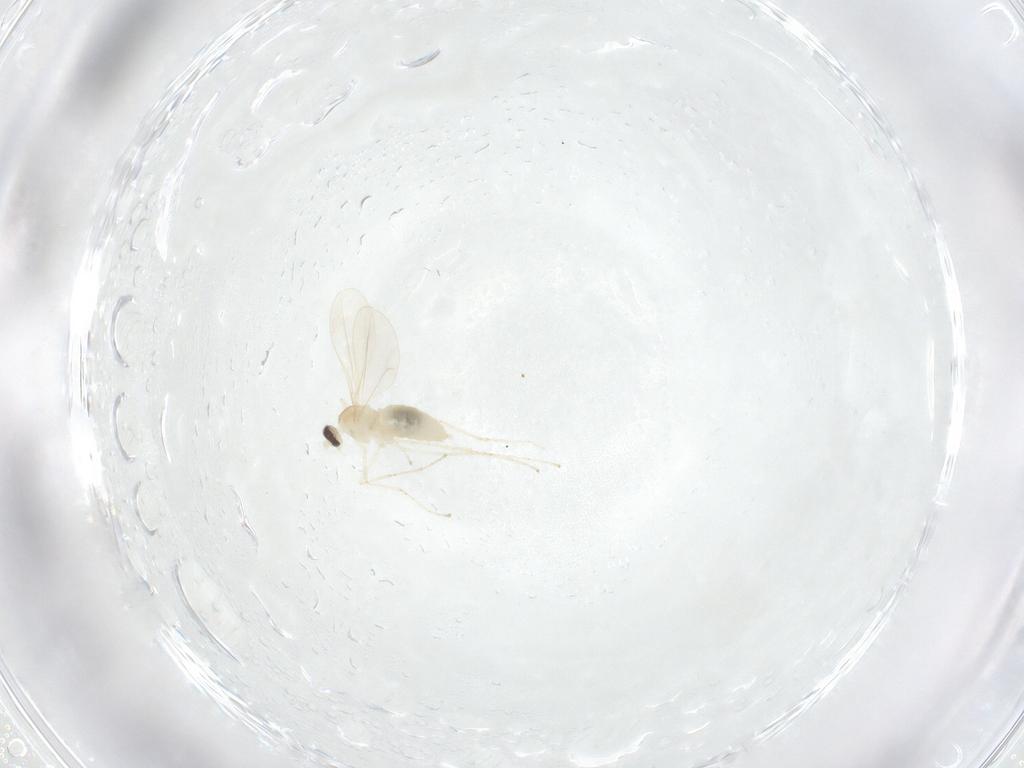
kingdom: Animalia
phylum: Arthropoda
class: Insecta
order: Diptera
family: Cecidomyiidae
